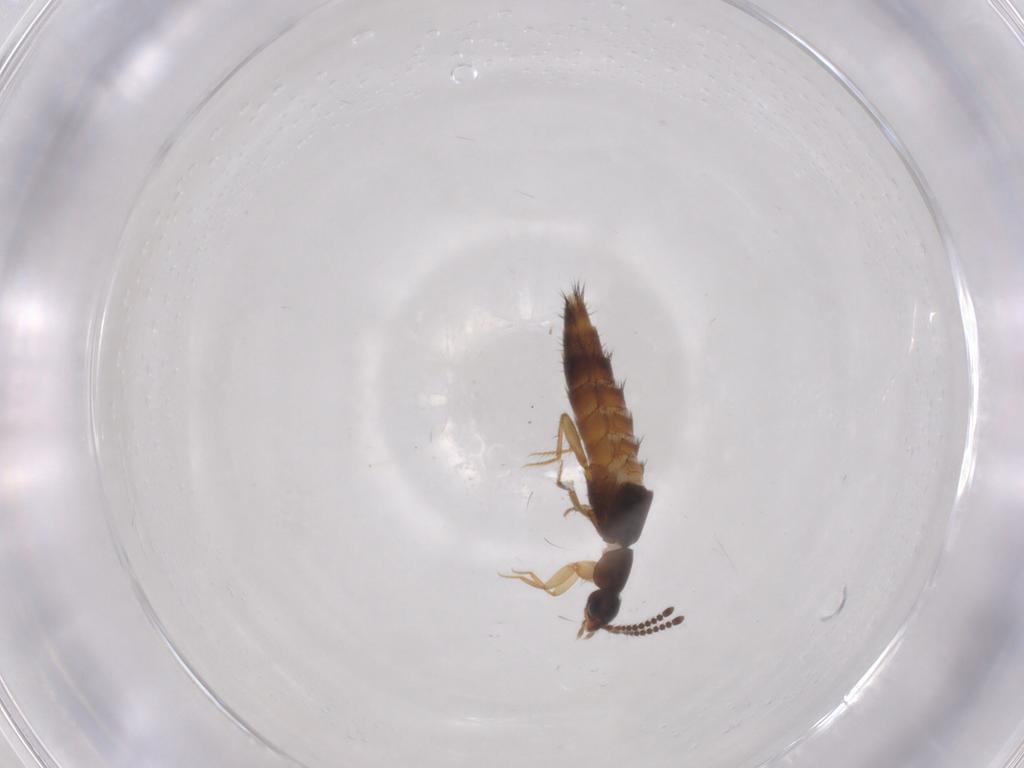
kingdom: Animalia
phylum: Arthropoda
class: Insecta
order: Coleoptera
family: Staphylinidae
